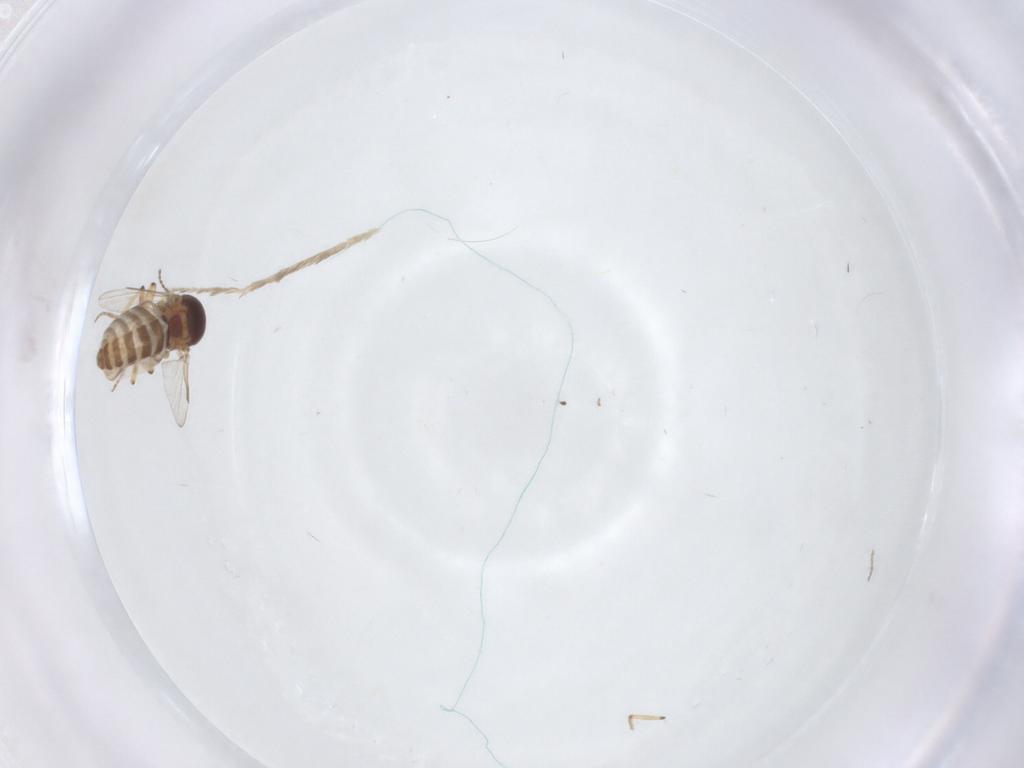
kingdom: Animalia
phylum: Arthropoda
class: Insecta
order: Diptera
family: Ceratopogonidae
